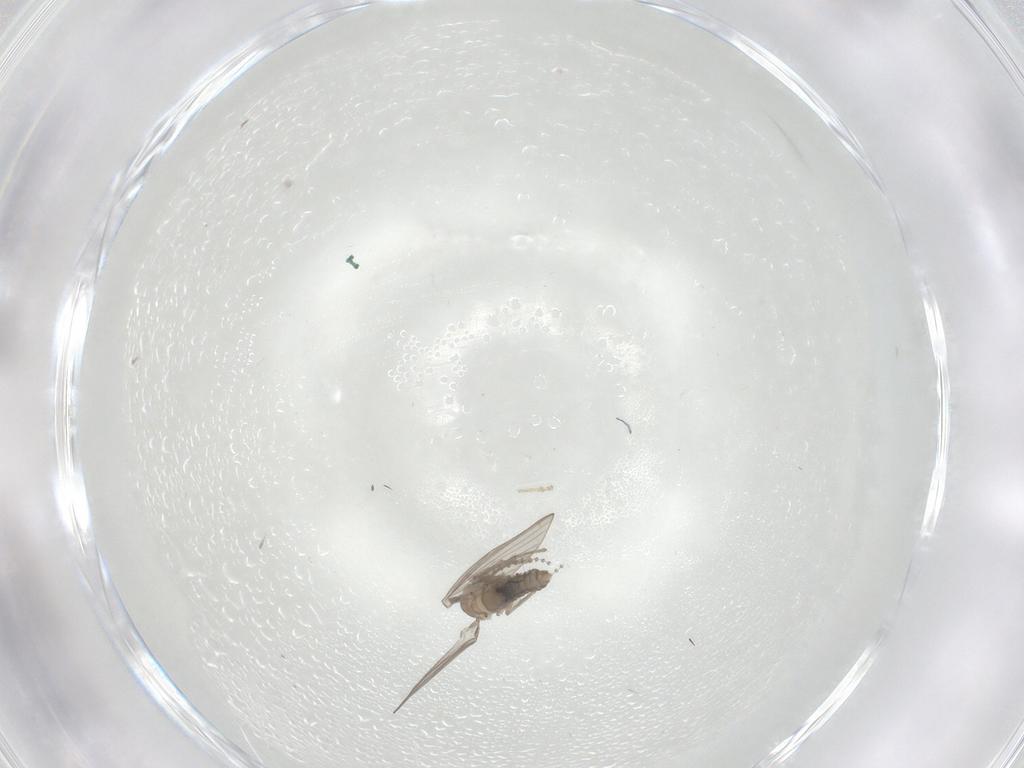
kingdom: Animalia
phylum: Arthropoda
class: Insecta
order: Diptera
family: Psychodidae
